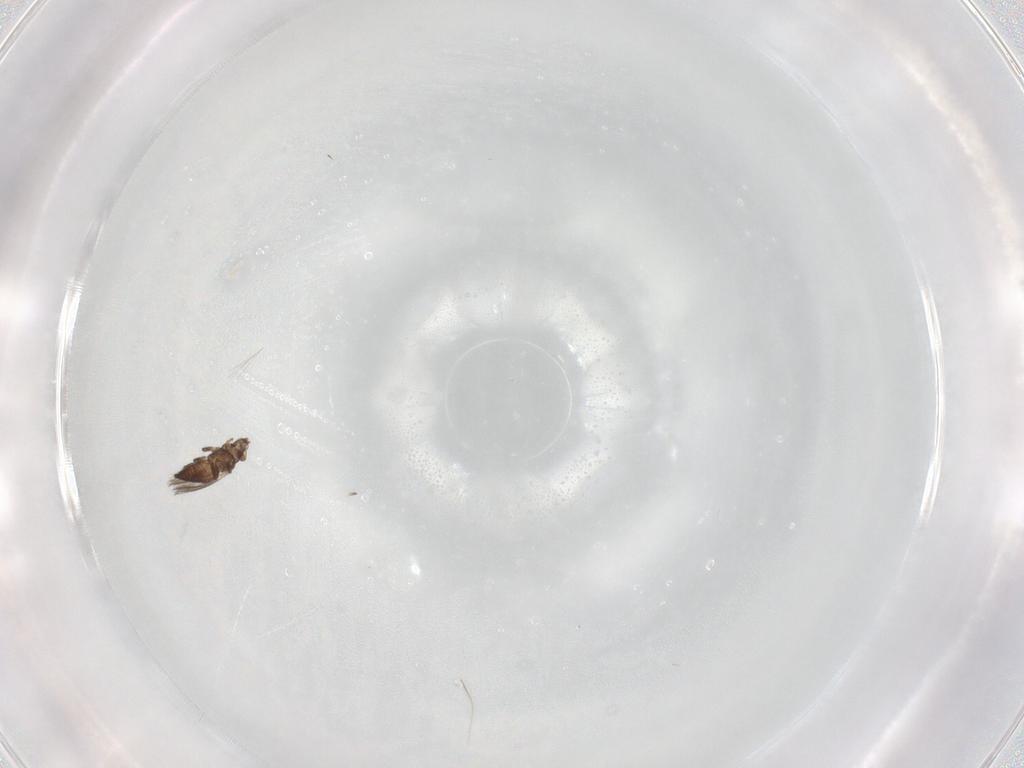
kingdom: Animalia
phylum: Arthropoda
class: Insecta
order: Thysanoptera
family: Thripidae
